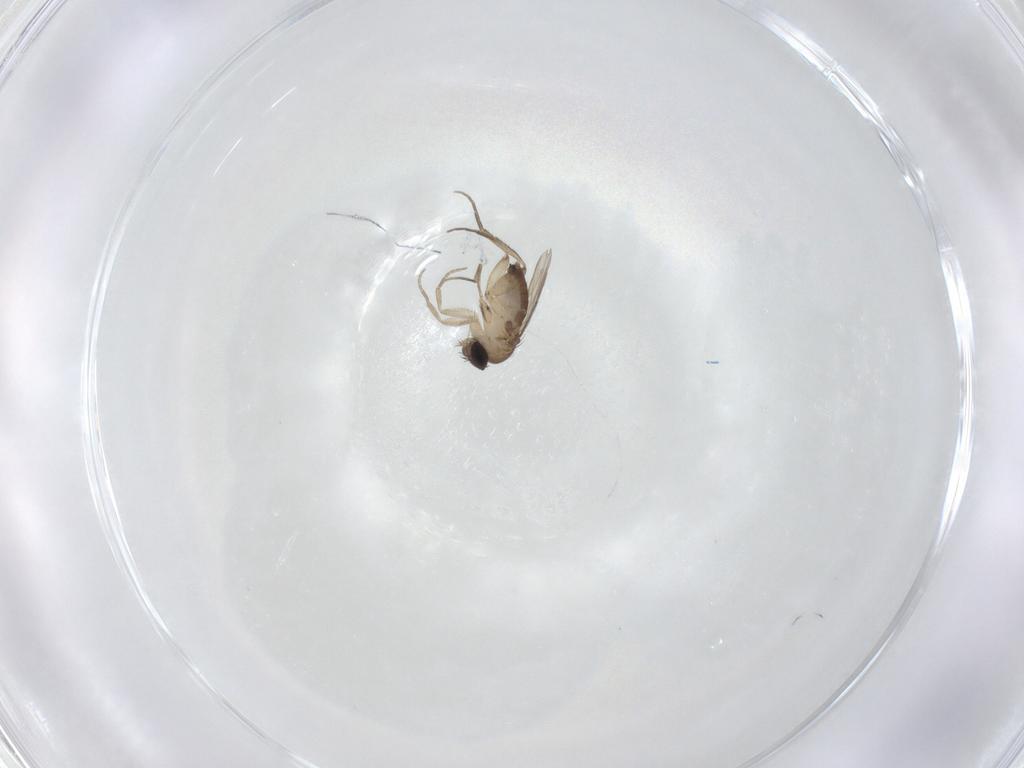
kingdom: Animalia
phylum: Arthropoda
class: Insecta
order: Diptera
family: Phoridae
